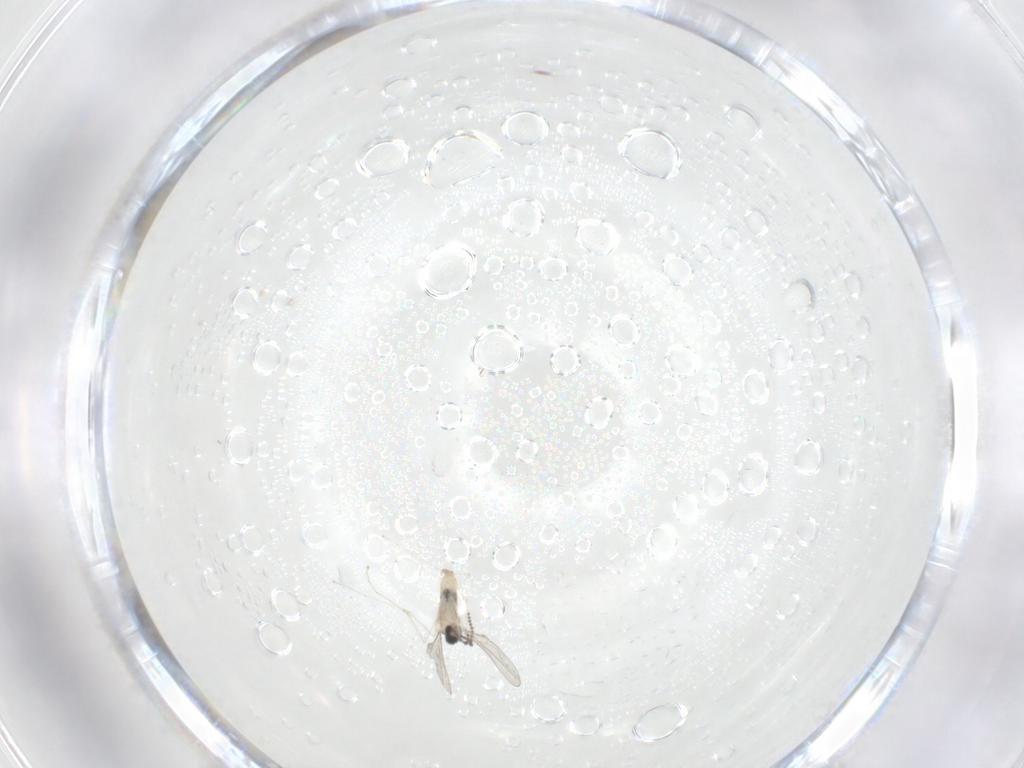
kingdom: Animalia
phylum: Arthropoda
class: Insecta
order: Diptera
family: Cecidomyiidae
